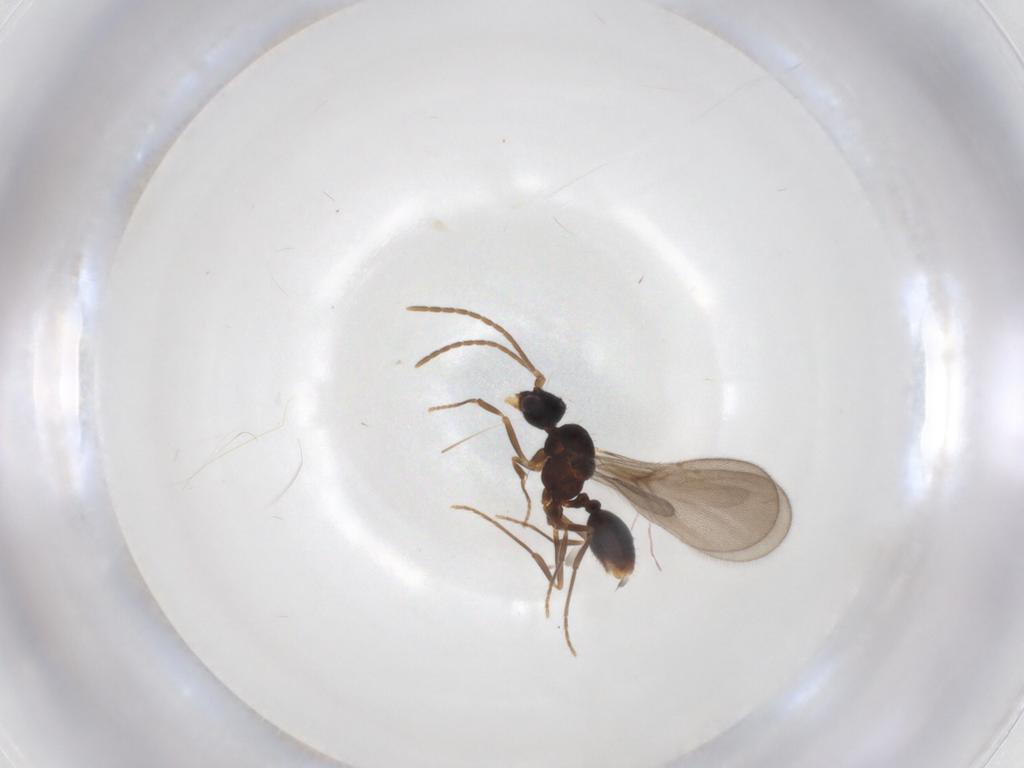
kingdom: Animalia
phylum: Arthropoda
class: Insecta
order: Hymenoptera
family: Formicidae
